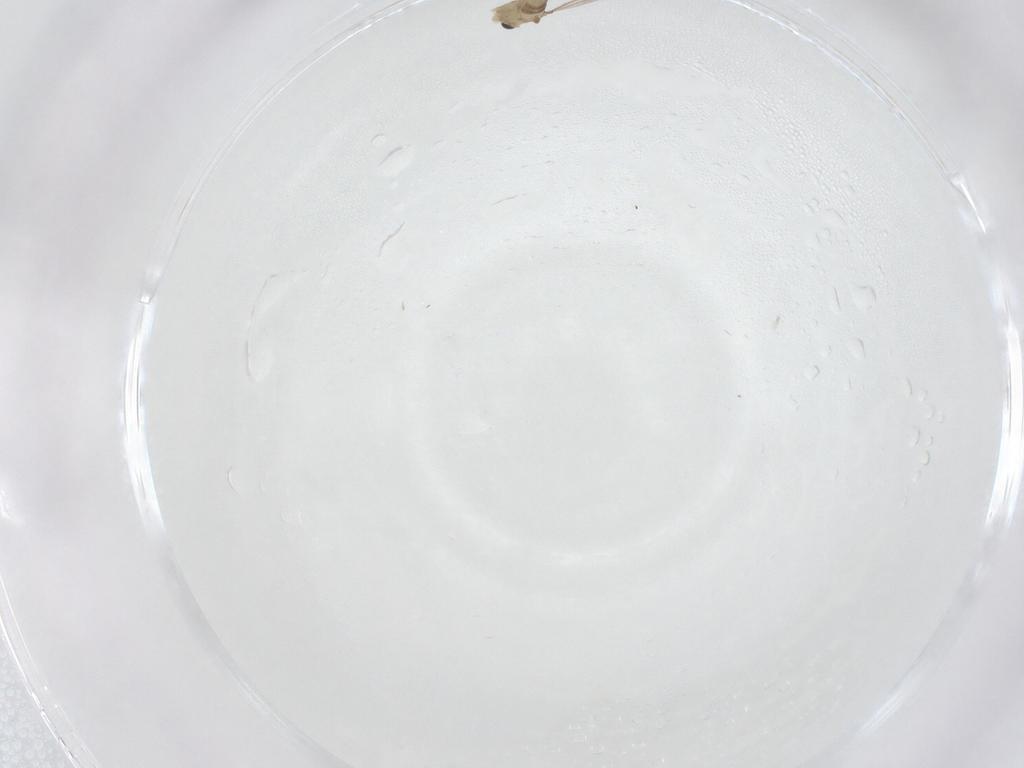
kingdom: Animalia
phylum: Arthropoda
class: Insecta
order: Diptera
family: Chironomidae
